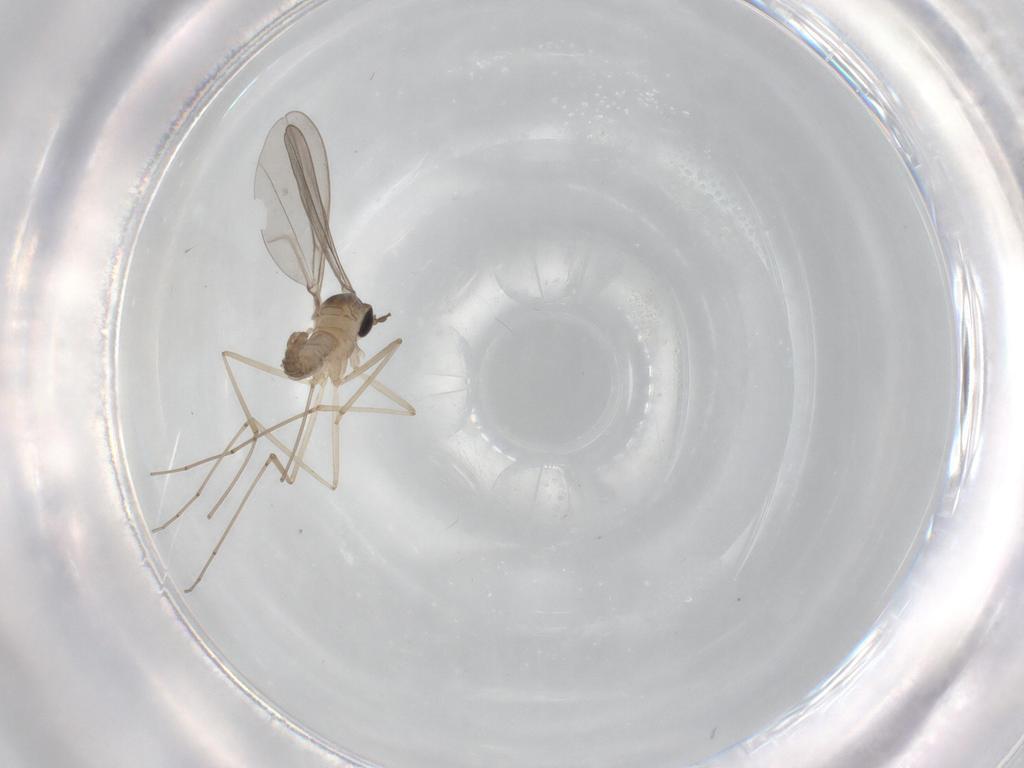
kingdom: Animalia
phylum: Arthropoda
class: Insecta
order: Diptera
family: Cecidomyiidae
